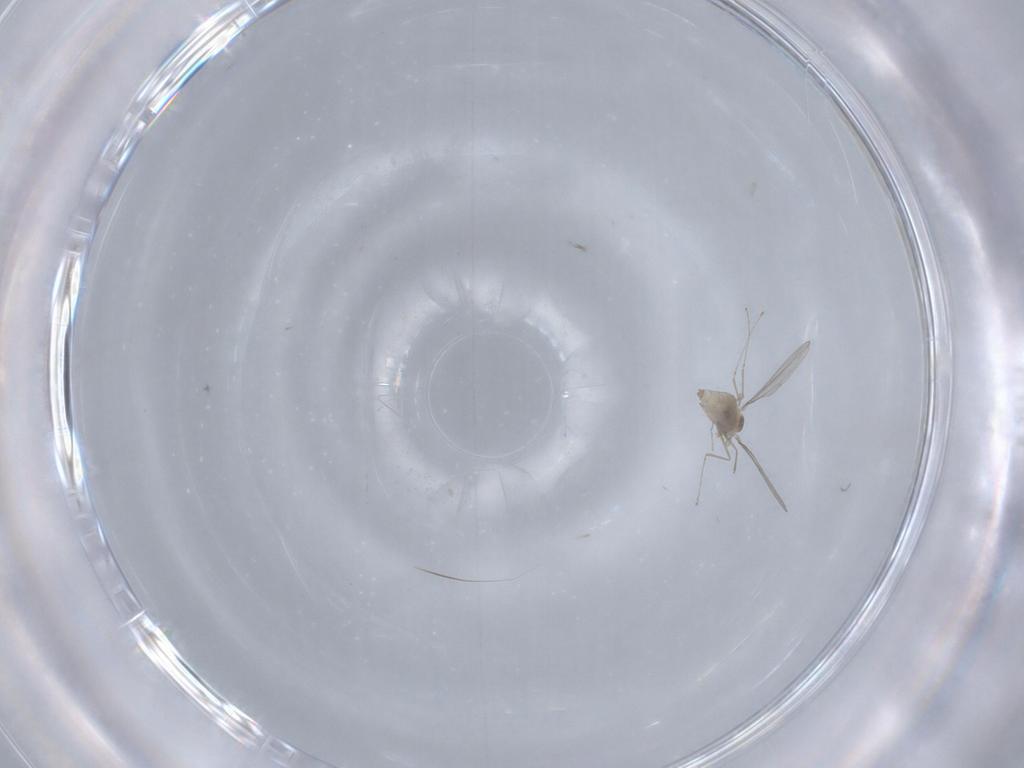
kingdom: Animalia
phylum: Arthropoda
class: Insecta
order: Diptera
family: Cecidomyiidae
